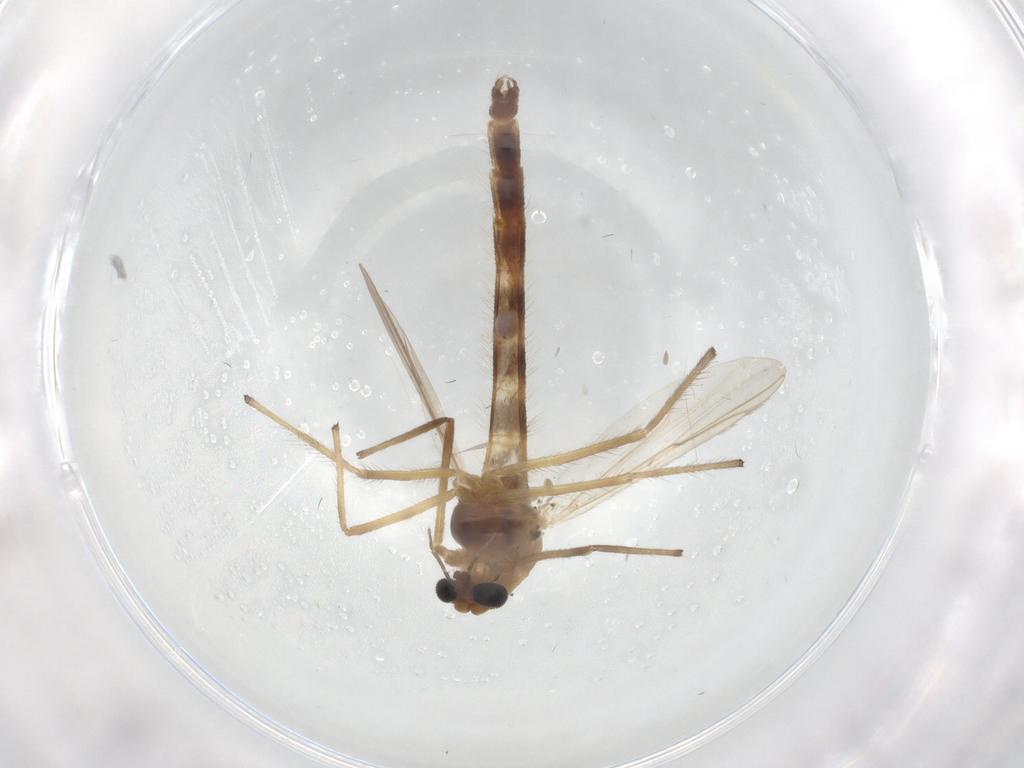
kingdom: Animalia
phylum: Arthropoda
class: Insecta
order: Diptera
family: Chironomidae
